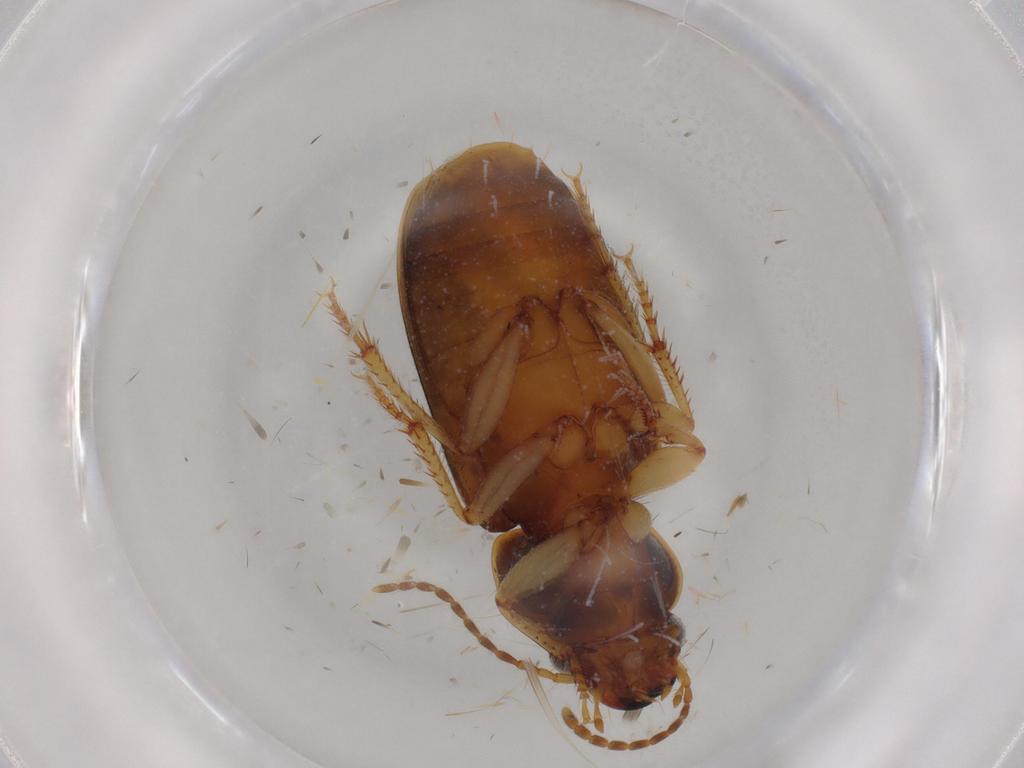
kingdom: Animalia
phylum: Arthropoda
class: Insecta
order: Coleoptera
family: Carabidae
